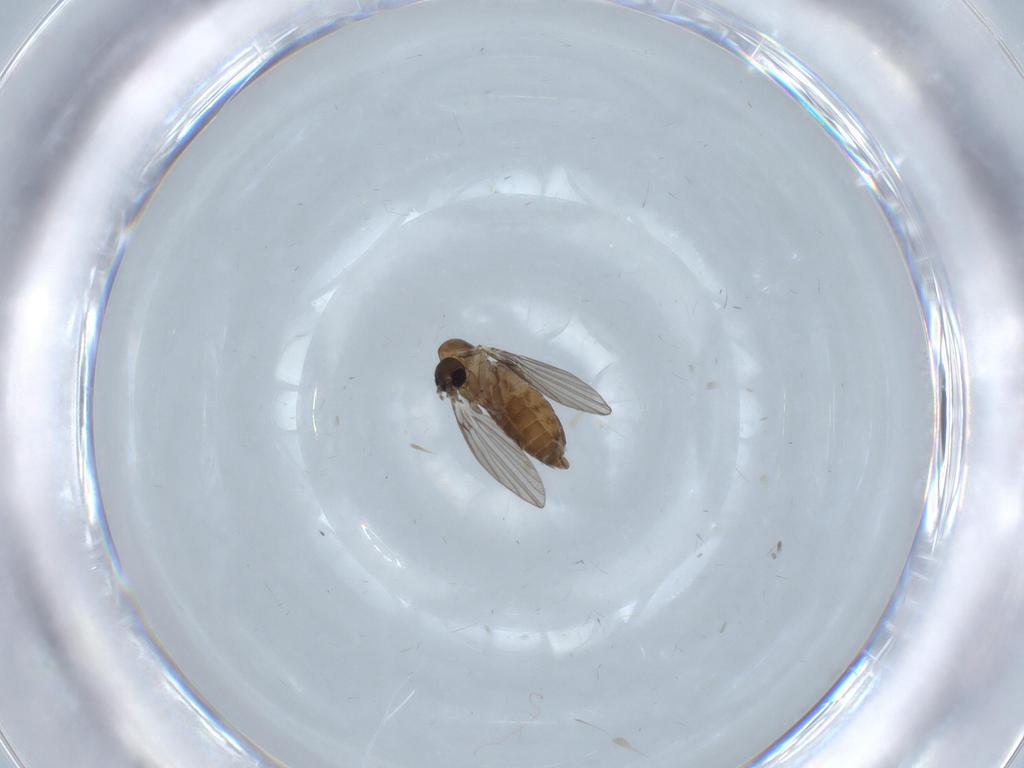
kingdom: Animalia
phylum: Arthropoda
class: Insecta
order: Diptera
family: Psychodidae
